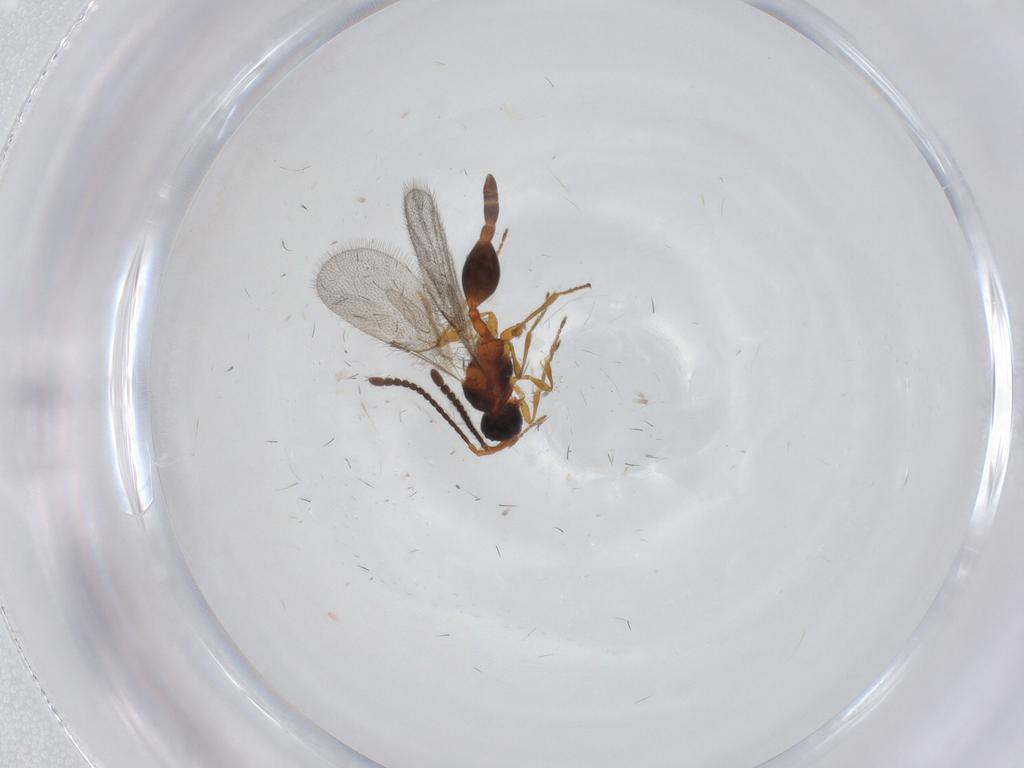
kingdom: Animalia
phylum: Arthropoda
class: Insecta
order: Hymenoptera
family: Diapriidae
